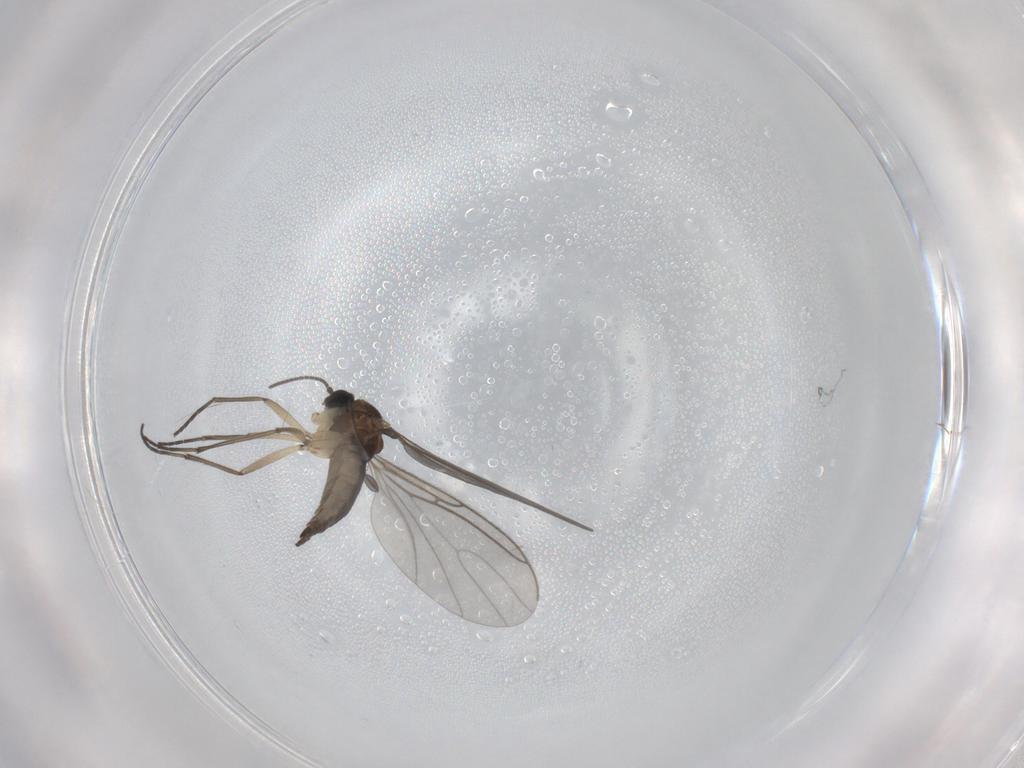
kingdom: Animalia
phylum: Arthropoda
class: Insecta
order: Diptera
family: Sciaridae
